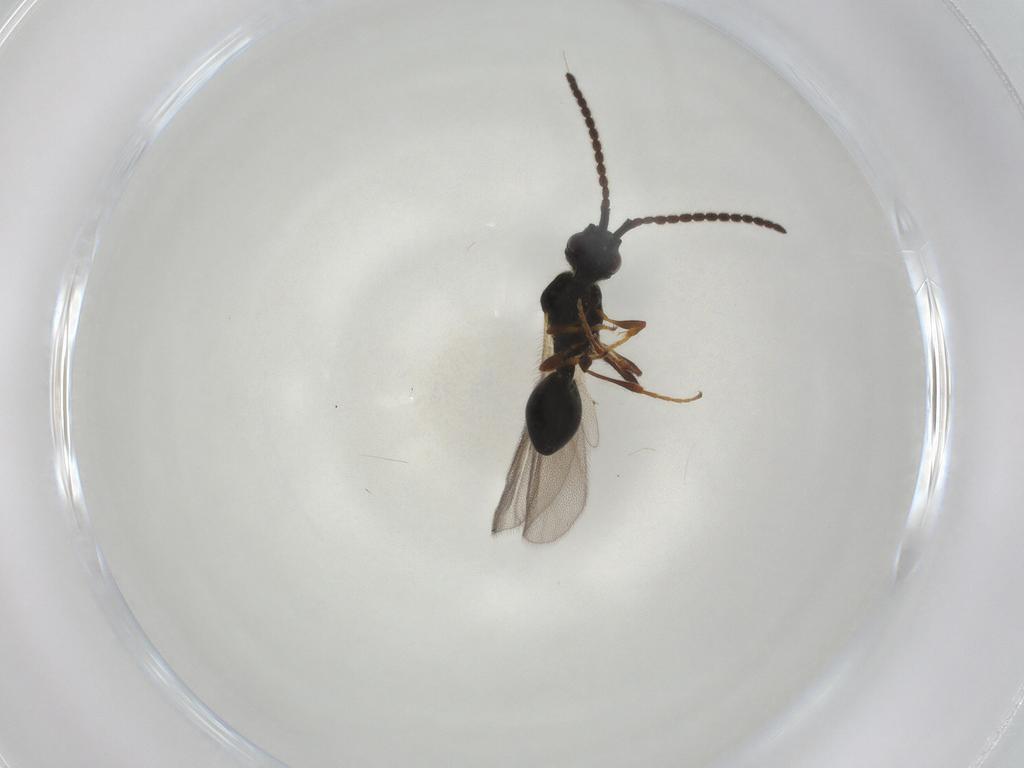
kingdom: Animalia
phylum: Arthropoda
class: Insecta
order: Hymenoptera
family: Diapriidae
